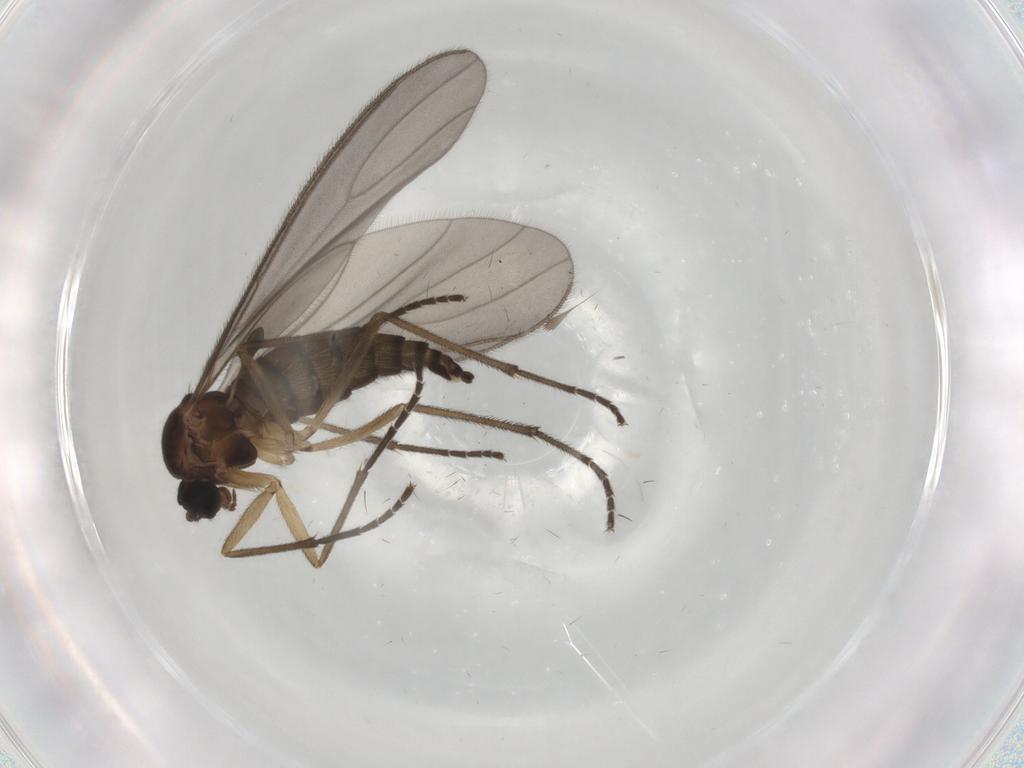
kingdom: Animalia
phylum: Arthropoda
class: Insecta
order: Diptera
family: Sciaridae
